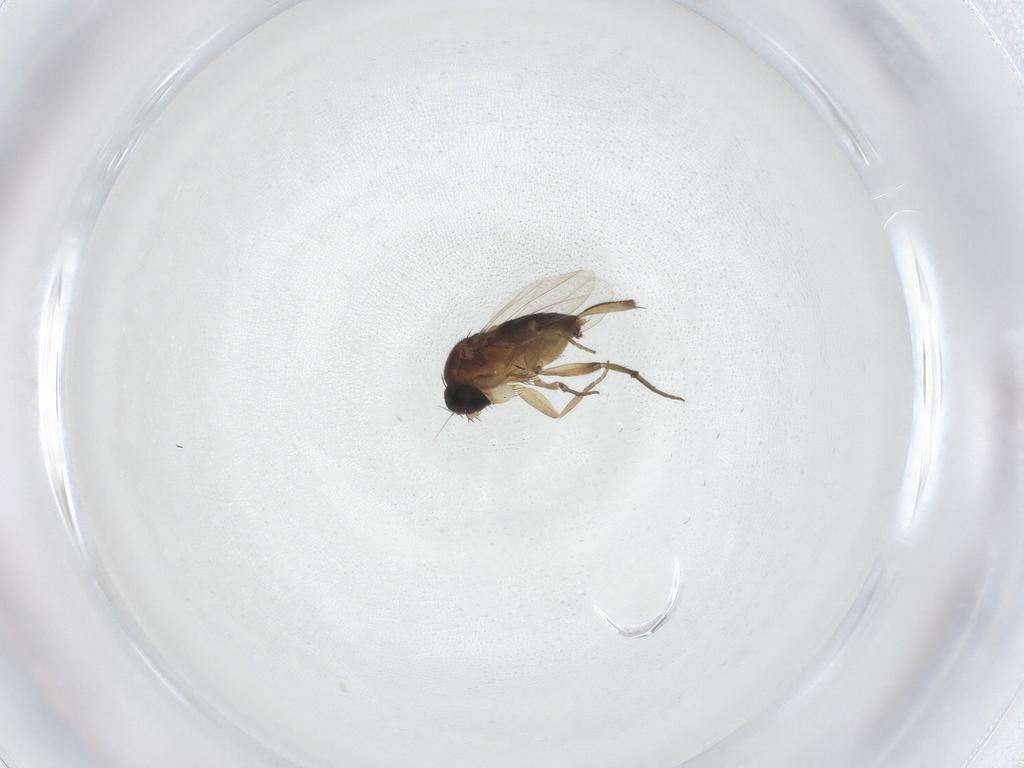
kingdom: Animalia
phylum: Arthropoda
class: Insecta
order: Diptera
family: Phoridae
